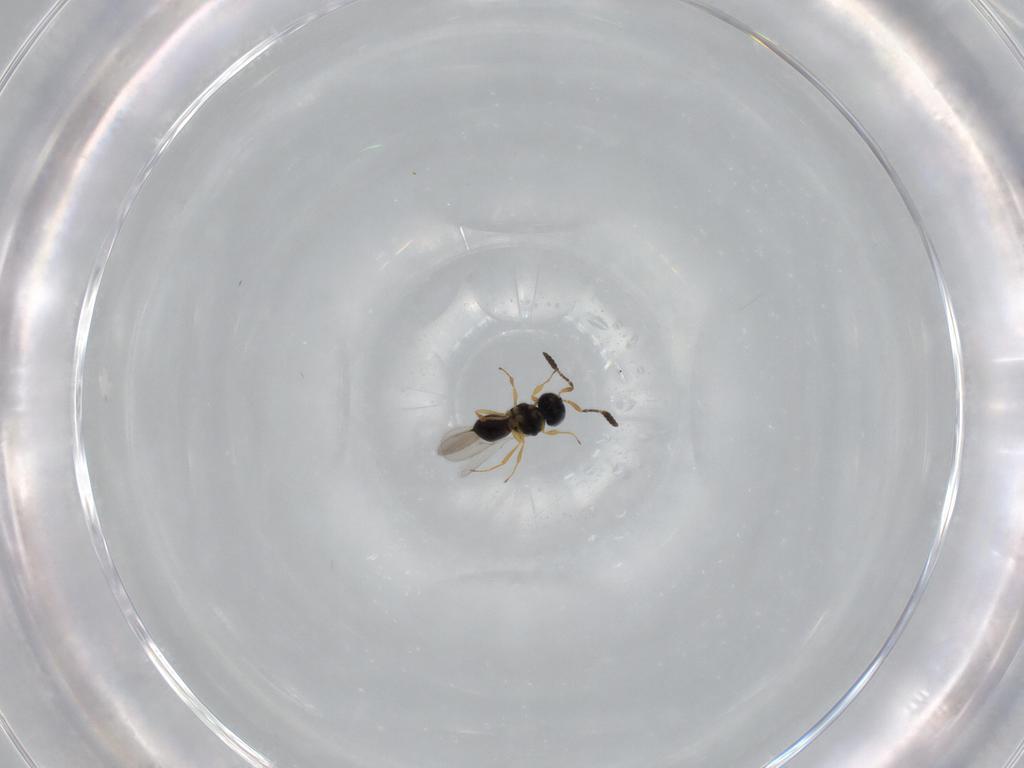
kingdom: Animalia
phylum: Arthropoda
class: Insecta
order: Hymenoptera
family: Scelionidae
